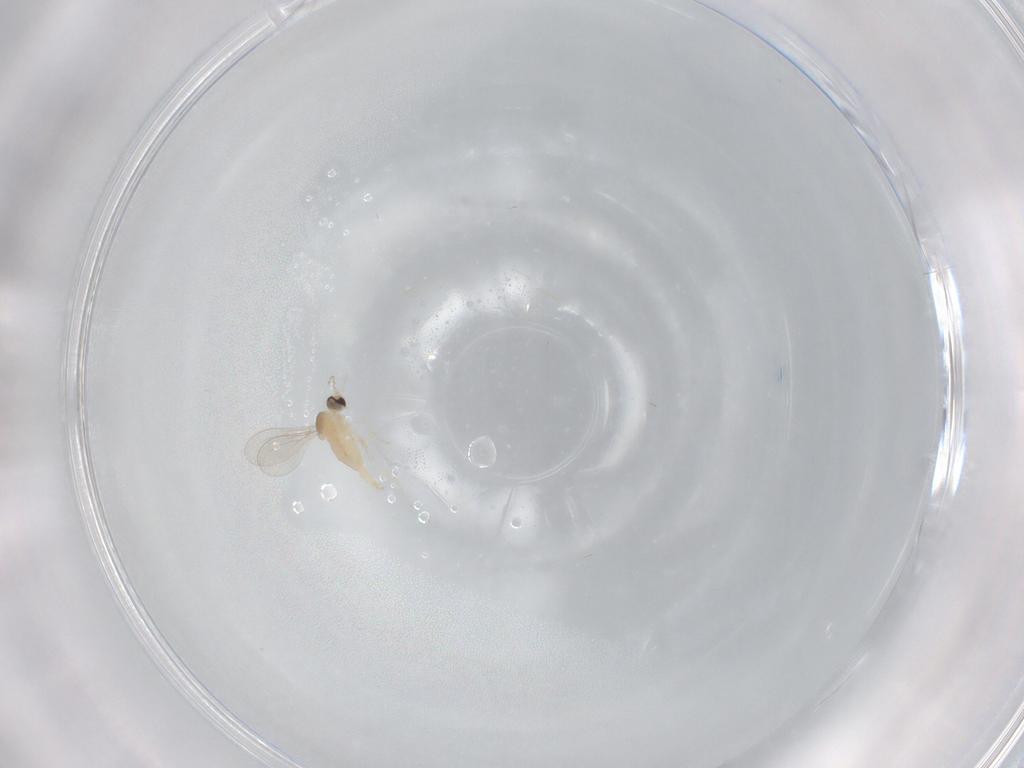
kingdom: Animalia
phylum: Arthropoda
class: Insecta
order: Diptera
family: Cecidomyiidae
